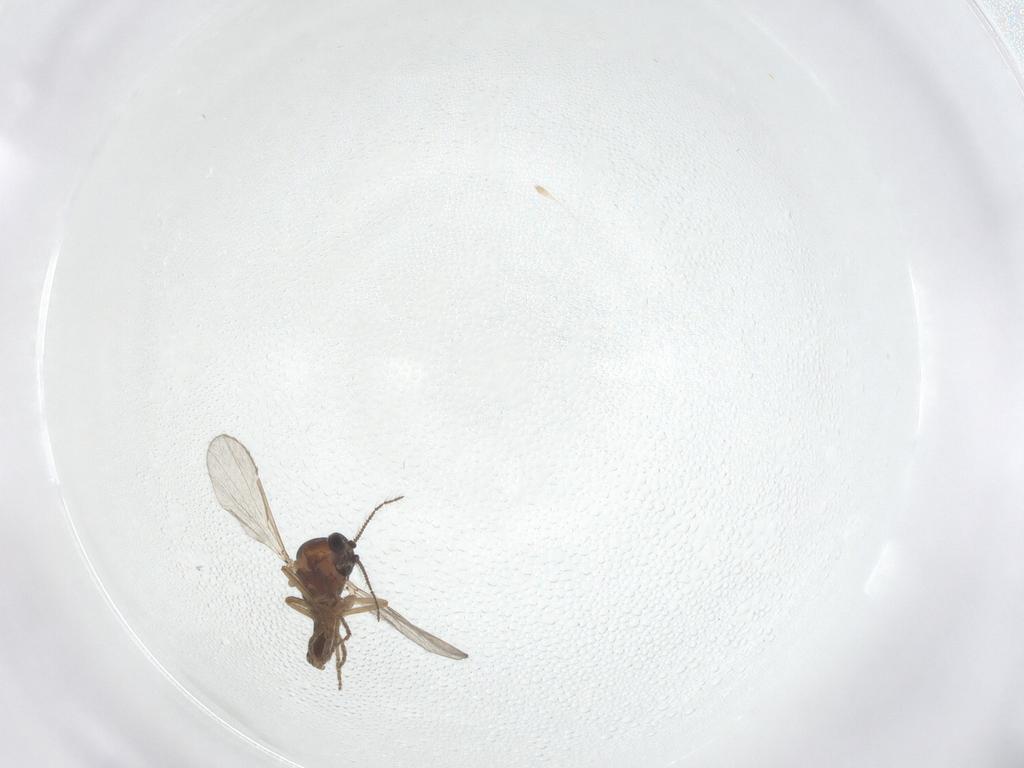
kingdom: Animalia
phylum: Arthropoda
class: Insecta
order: Diptera
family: Ceratopogonidae
